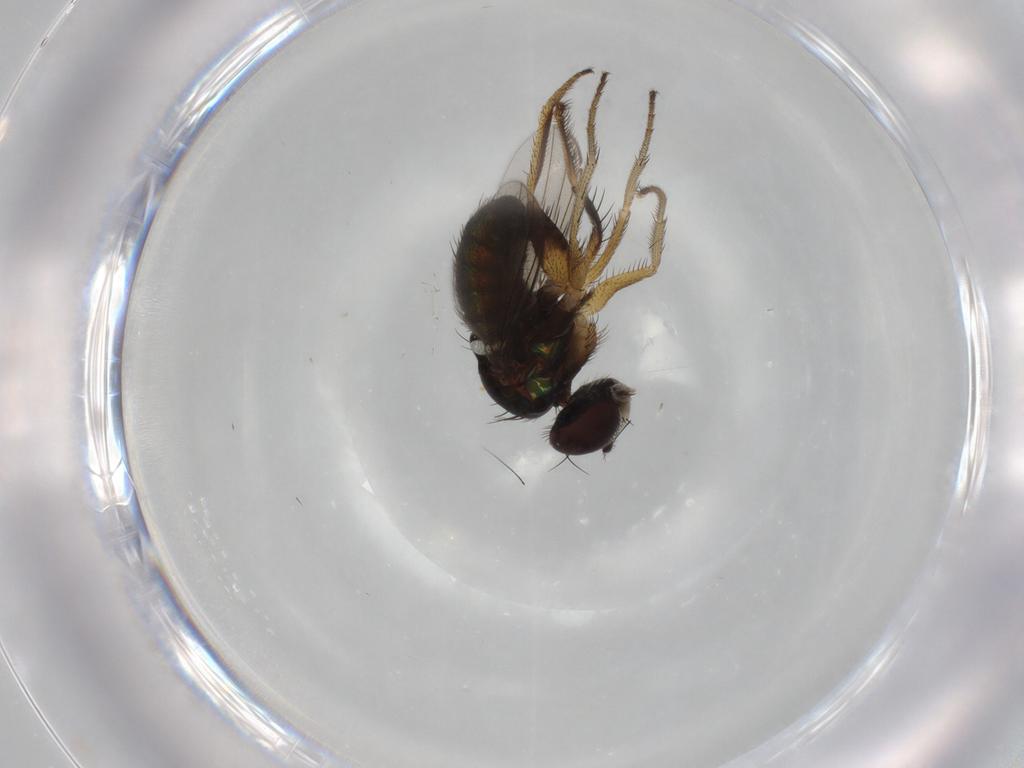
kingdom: Animalia
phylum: Arthropoda
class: Insecta
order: Diptera
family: Dolichopodidae
